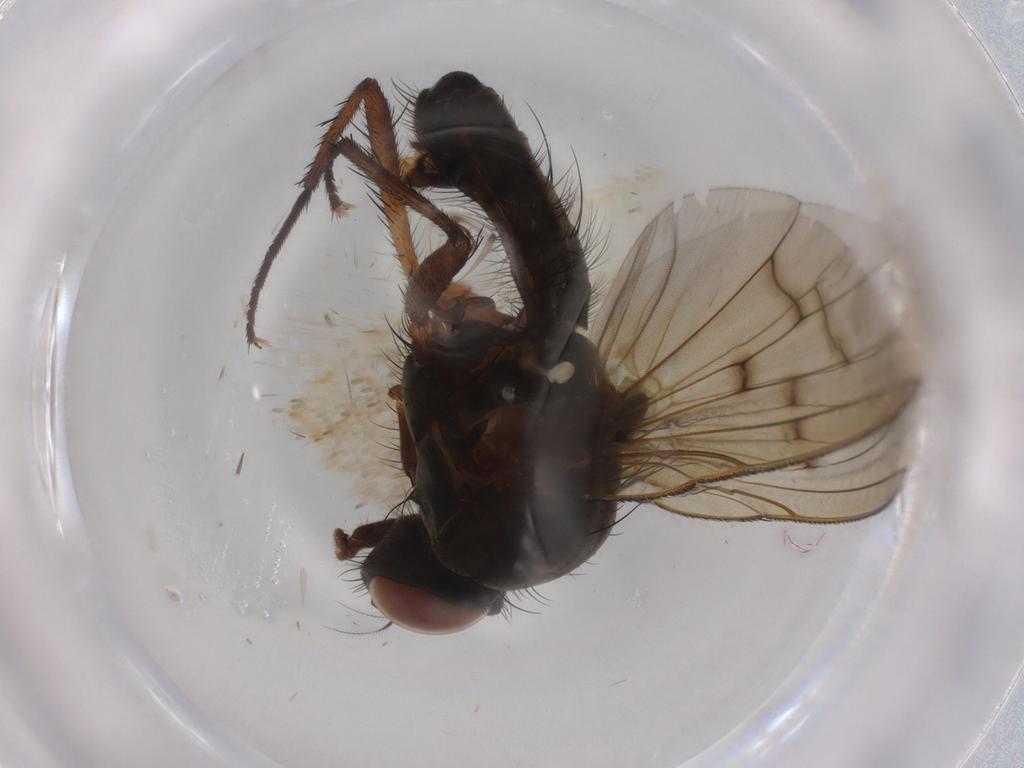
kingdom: Animalia
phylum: Arthropoda
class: Insecta
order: Diptera
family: Anthomyiidae
